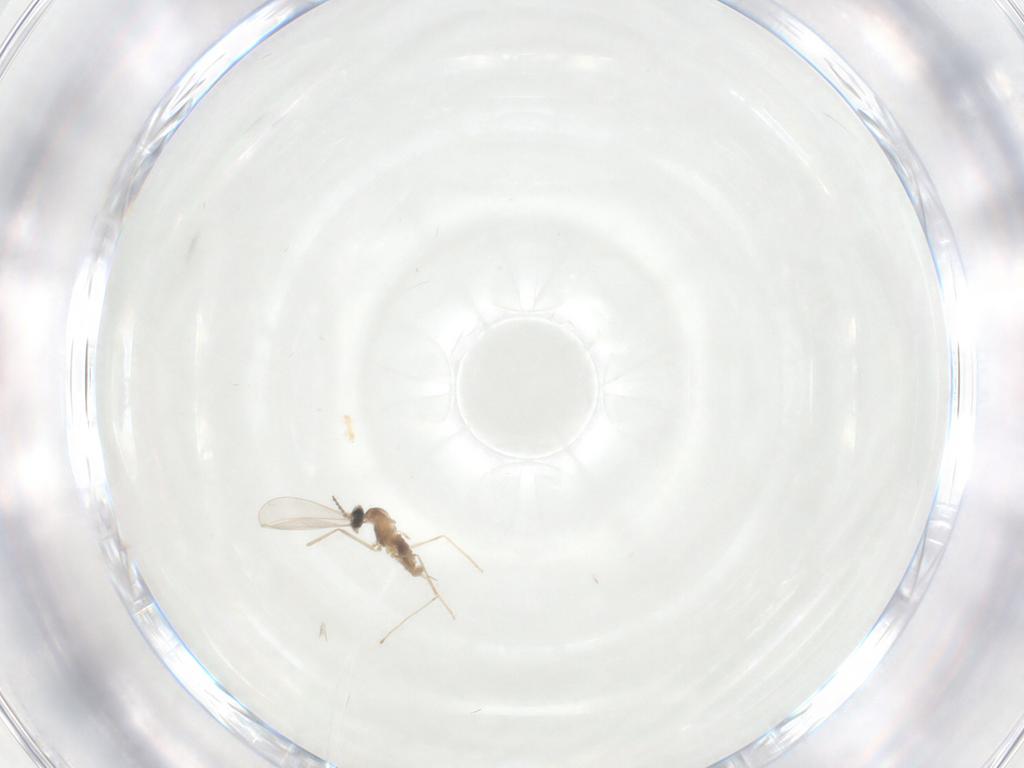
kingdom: Animalia
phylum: Arthropoda
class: Insecta
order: Diptera
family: Cecidomyiidae
